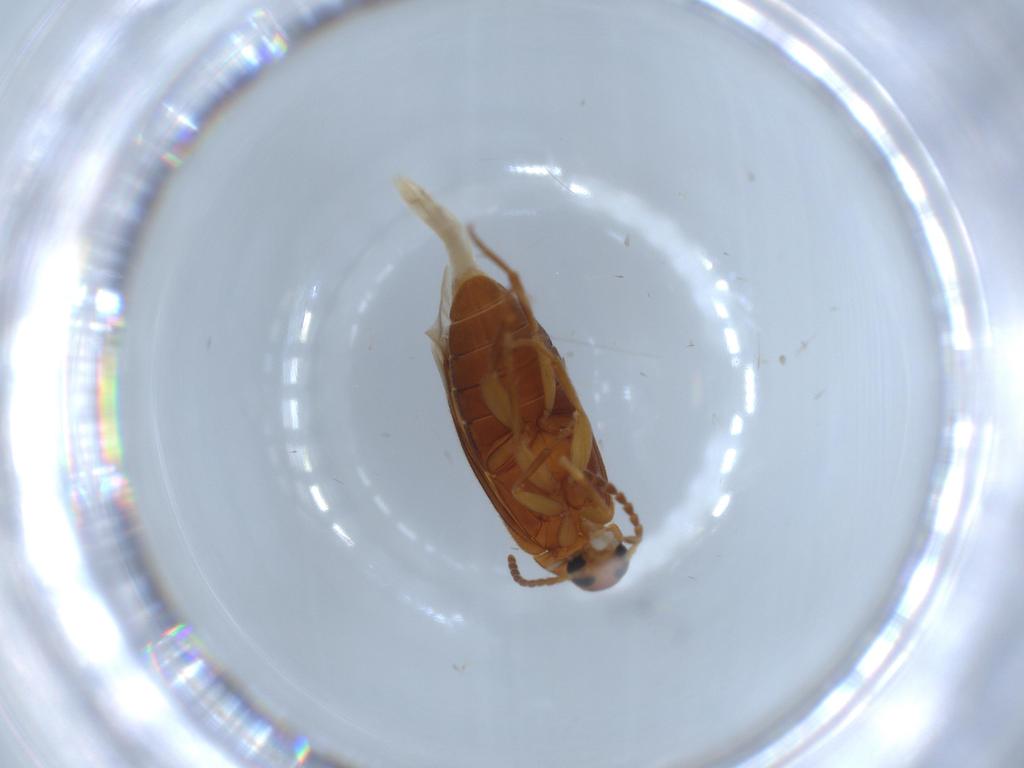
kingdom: Animalia
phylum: Arthropoda
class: Insecta
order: Coleoptera
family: Scraptiidae
